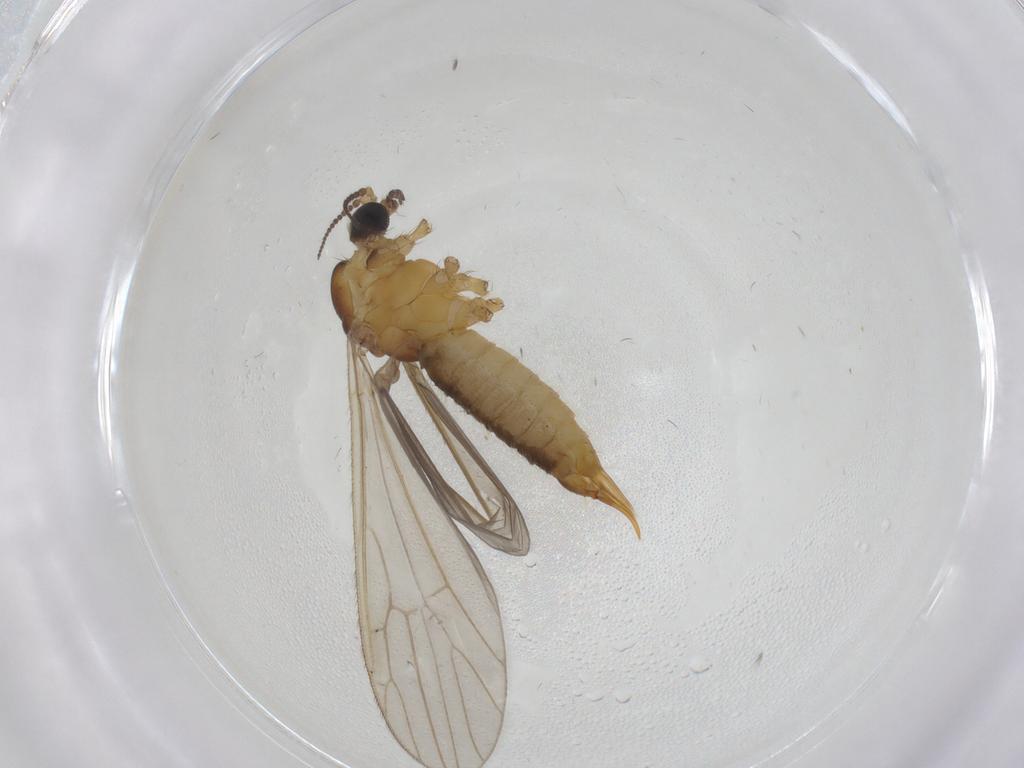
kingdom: Animalia
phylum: Arthropoda
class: Insecta
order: Diptera
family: Limoniidae
